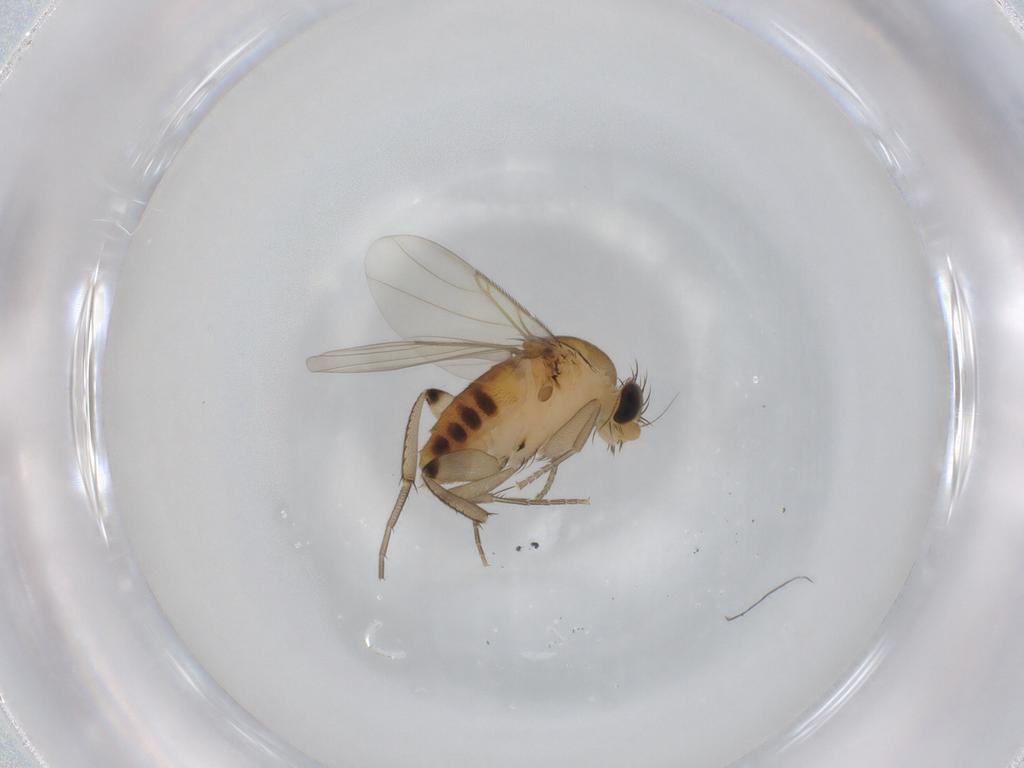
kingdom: Animalia
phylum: Arthropoda
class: Insecta
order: Diptera
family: Phoridae
